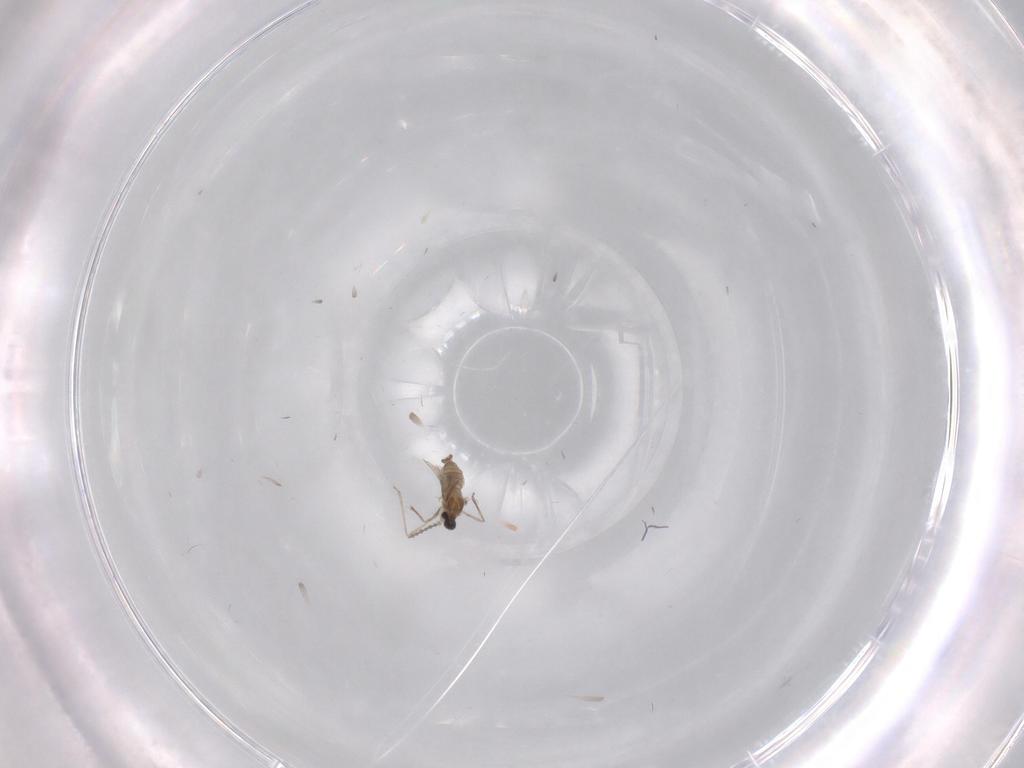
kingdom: Animalia
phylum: Arthropoda
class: Insecta
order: Diptera
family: Cecidomyiidae
